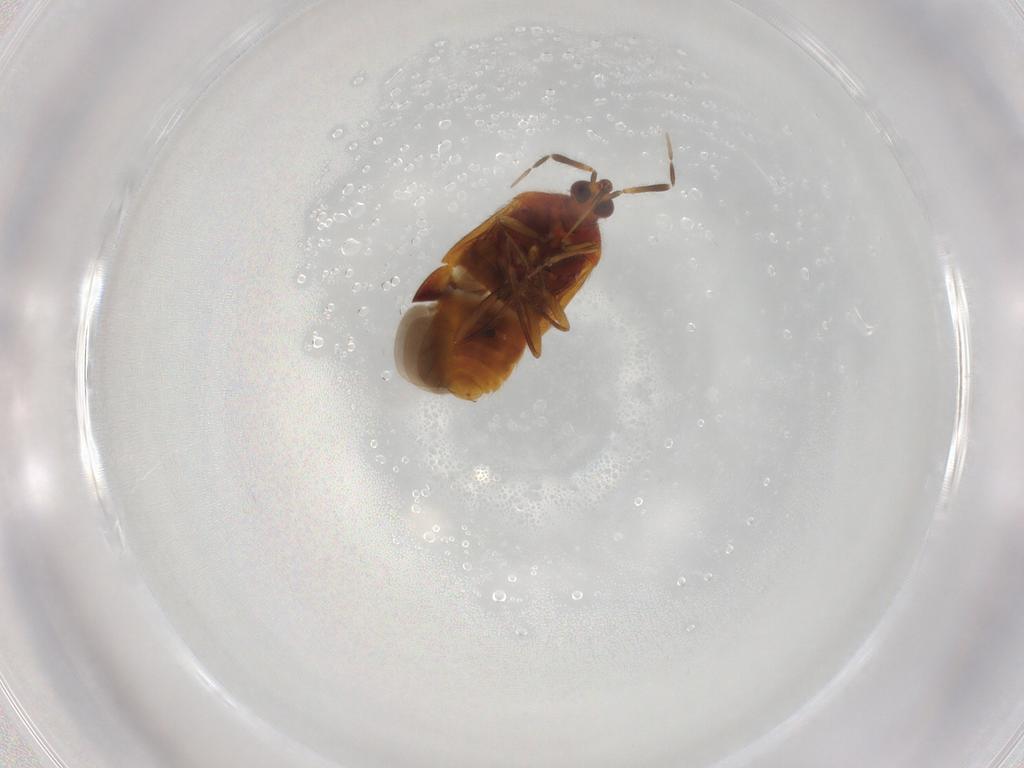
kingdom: Animalia
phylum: Arthropoda
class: Insecta
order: Hemiptera
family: Anthocoridae
